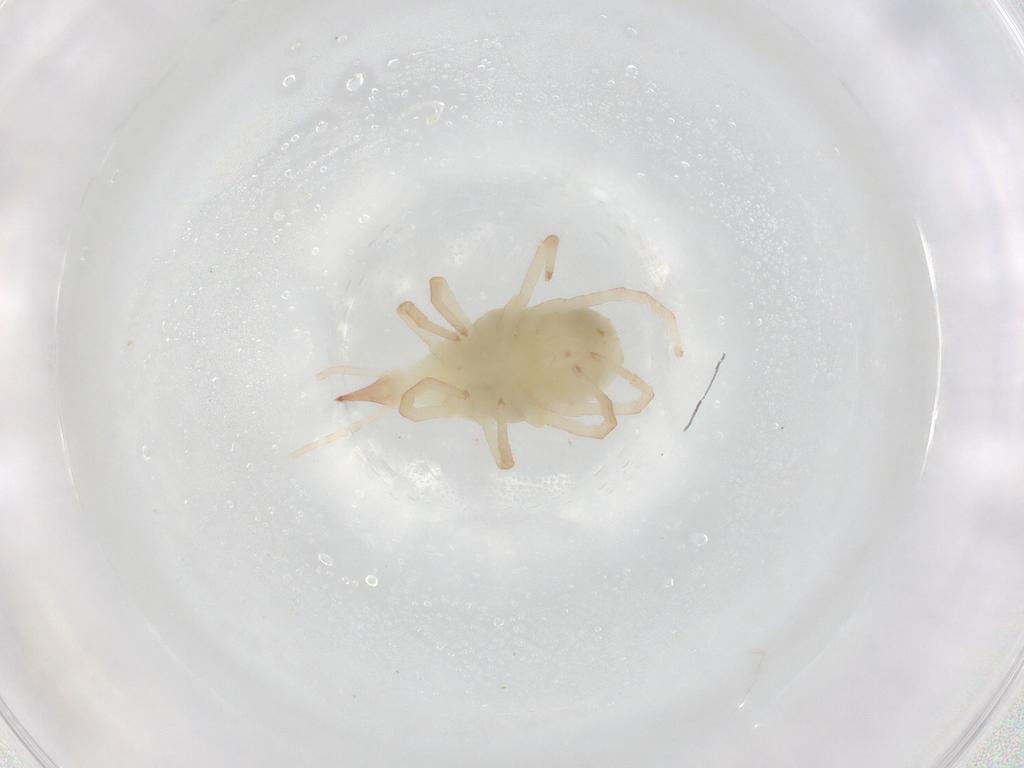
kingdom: Animalia
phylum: Arthropoda
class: Arachnida
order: Trombidiformes
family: Bdellidae
